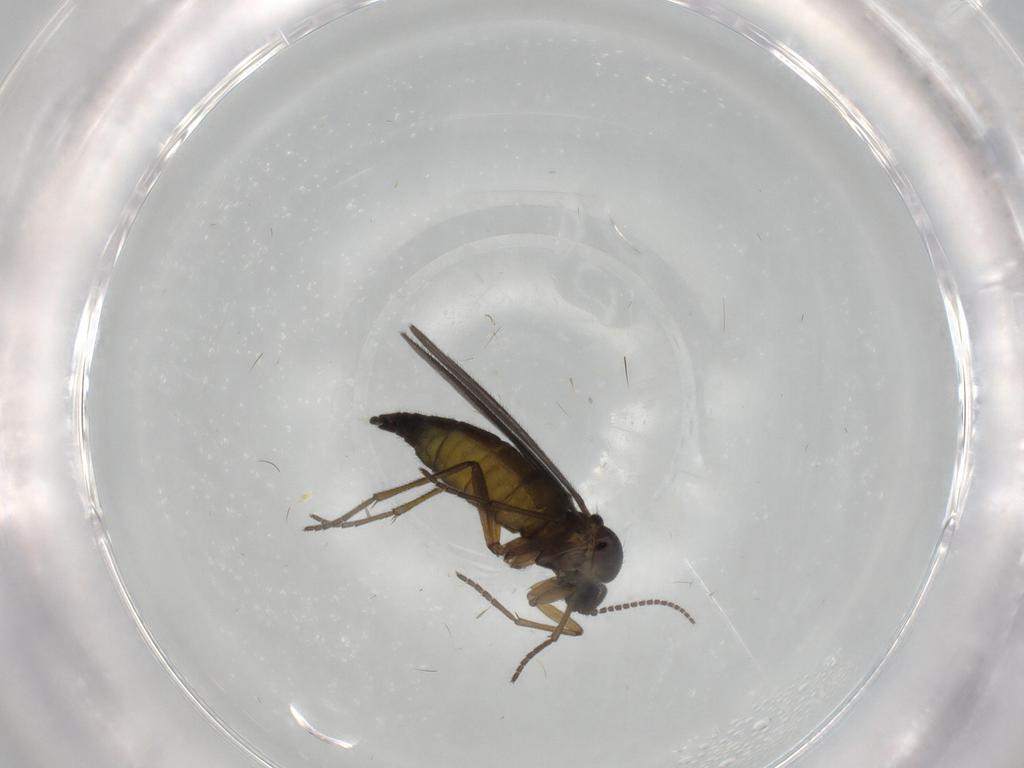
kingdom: Animalia
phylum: Arthropoda
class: Insecta
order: Diptera
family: Sciaridae
